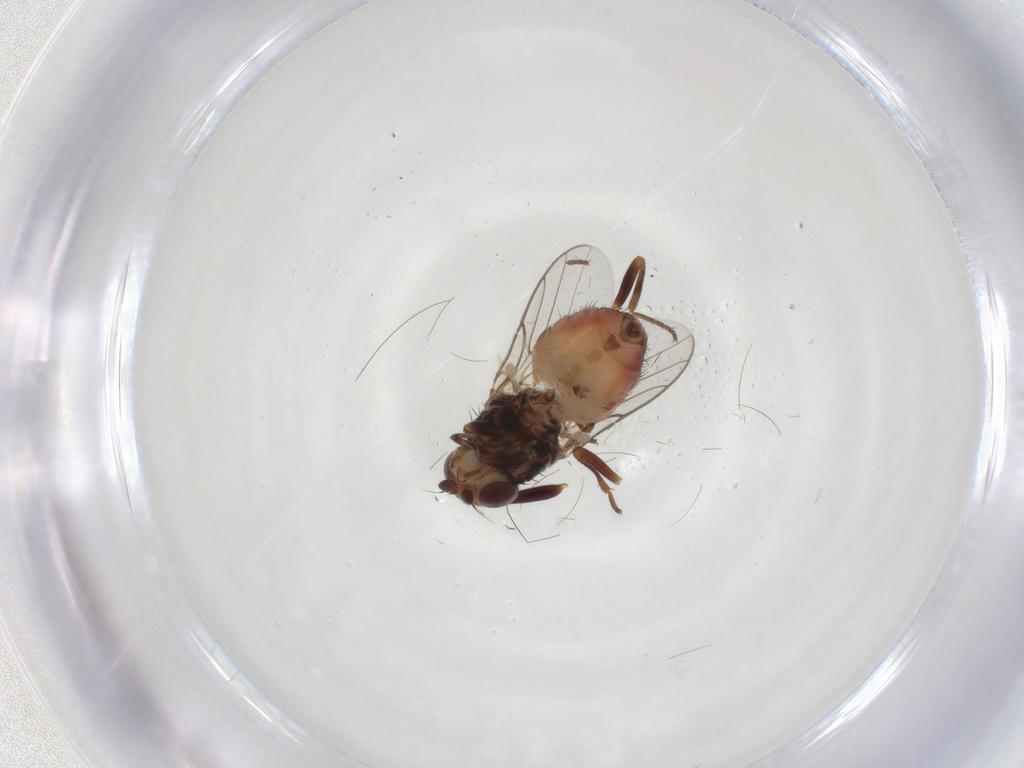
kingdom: Animalia
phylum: Arthropoda
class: Insecta
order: Diptera
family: Chloropidae
